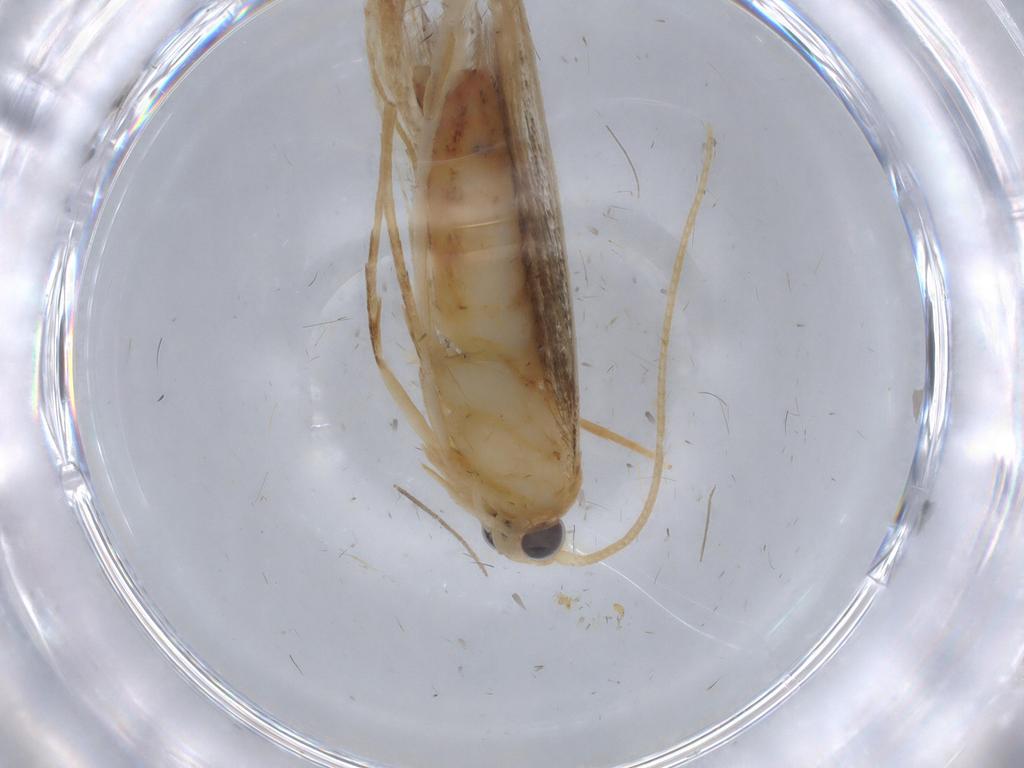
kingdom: Animalia
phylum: Arthropoda
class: Insecta
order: Lepidoptera
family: Coleophoridae
